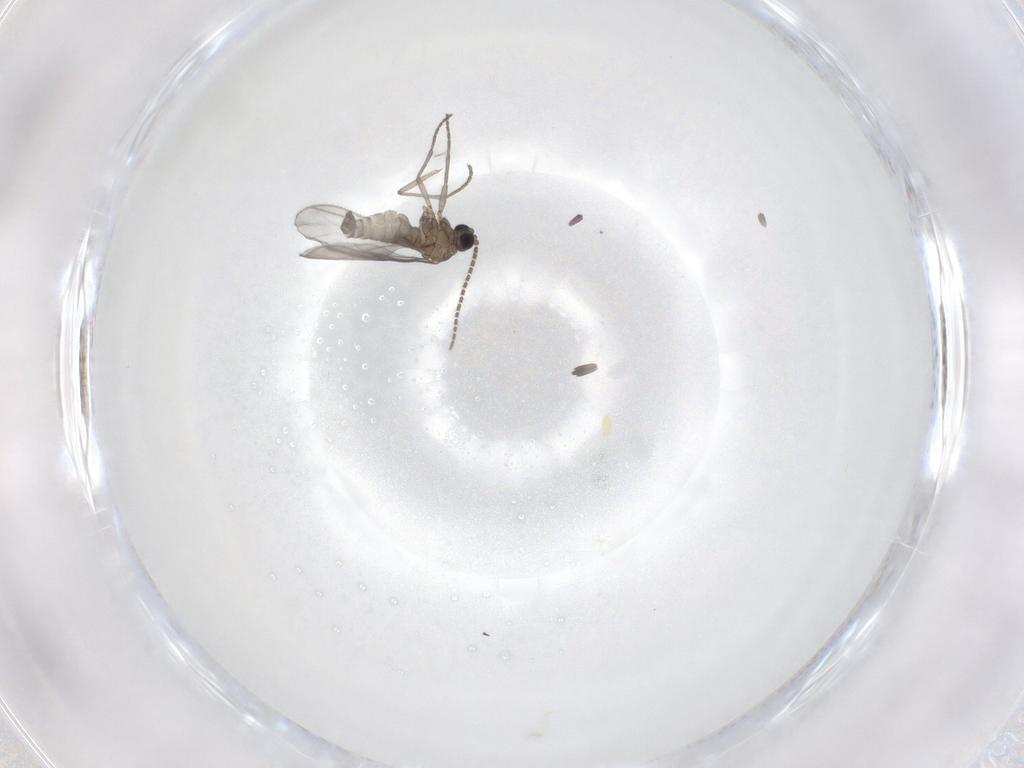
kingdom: Animalia
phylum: Arthropoda
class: Insecta
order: Diptera
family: Sciaridae
